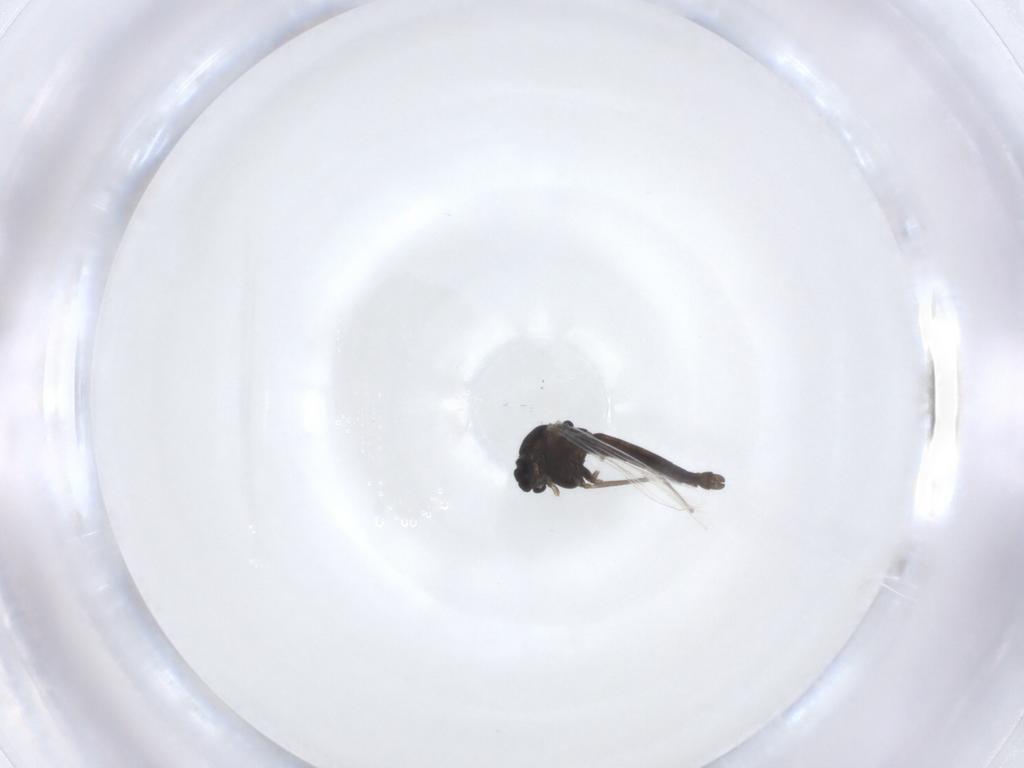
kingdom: Animalia
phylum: Arthropoda
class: Insecta
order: Diptera
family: Chironomidae
